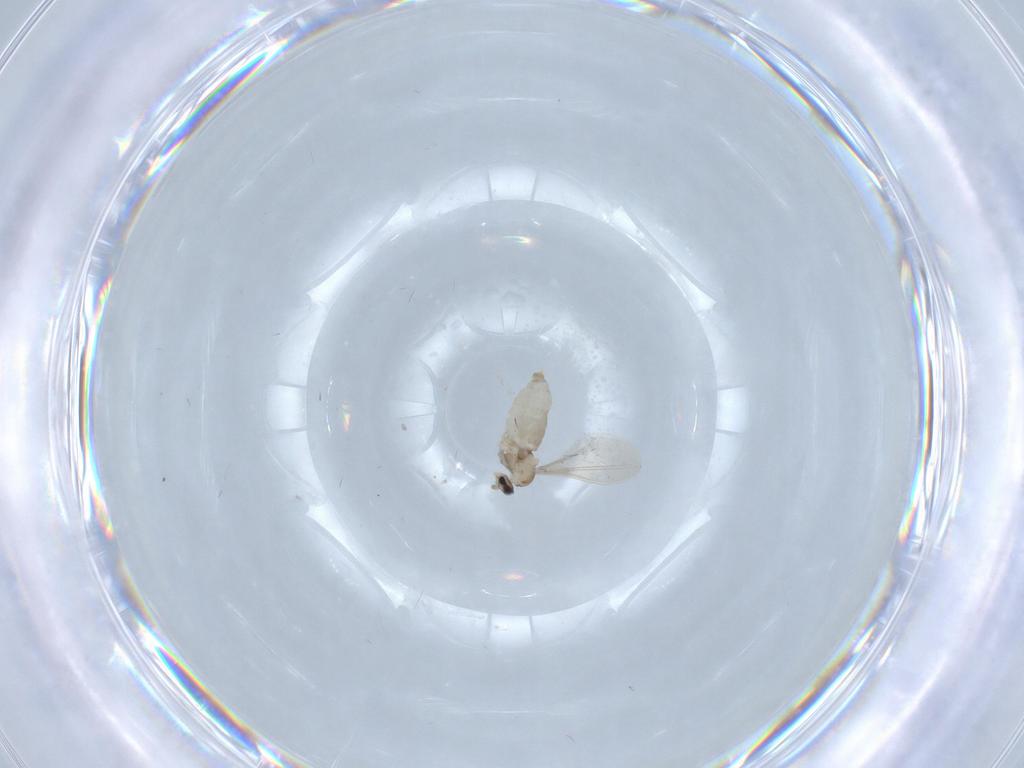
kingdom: Animalia
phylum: Arthropoda
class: Insecta
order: Diptera
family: Cecidomyiidae
